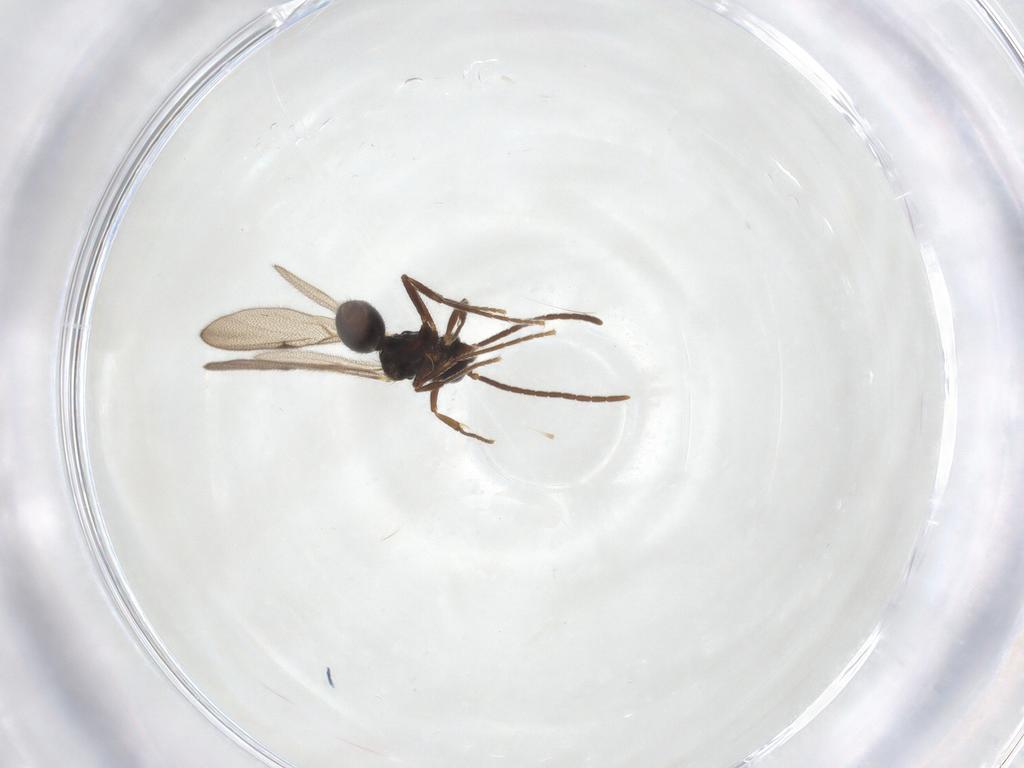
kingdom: Animalia
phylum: Arthropoda
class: Insecta
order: Hymenoptera
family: Formicidae
